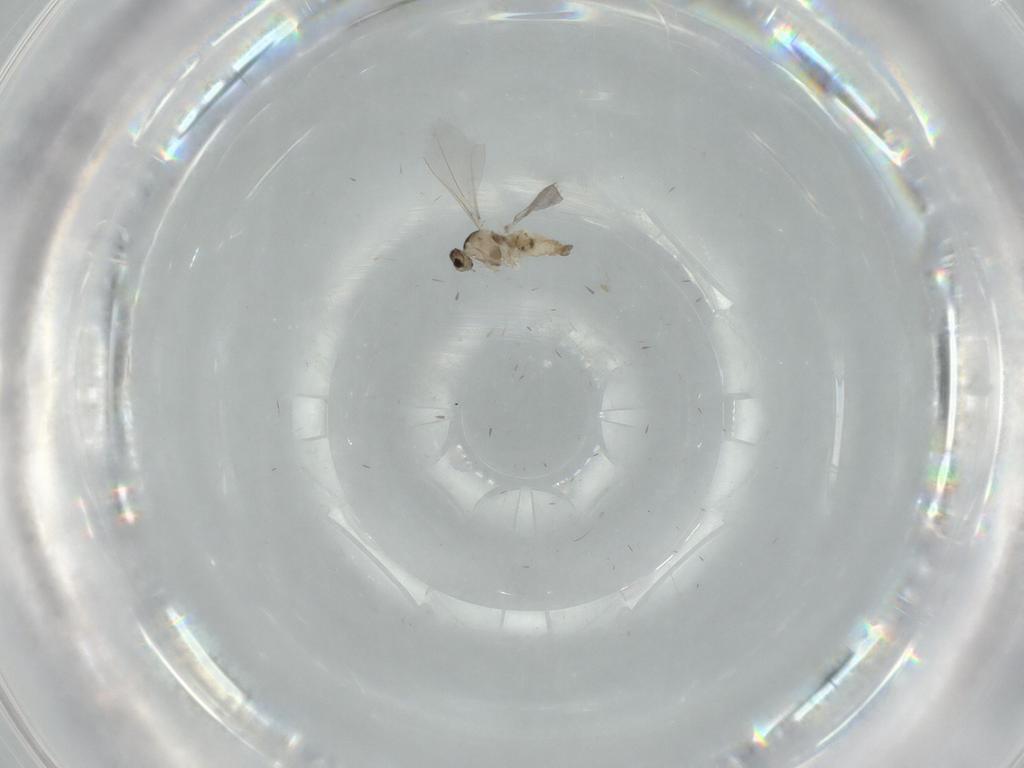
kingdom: Animalia
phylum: Arthropoda
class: Insecta
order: Diptera
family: Cecidomyiidae
